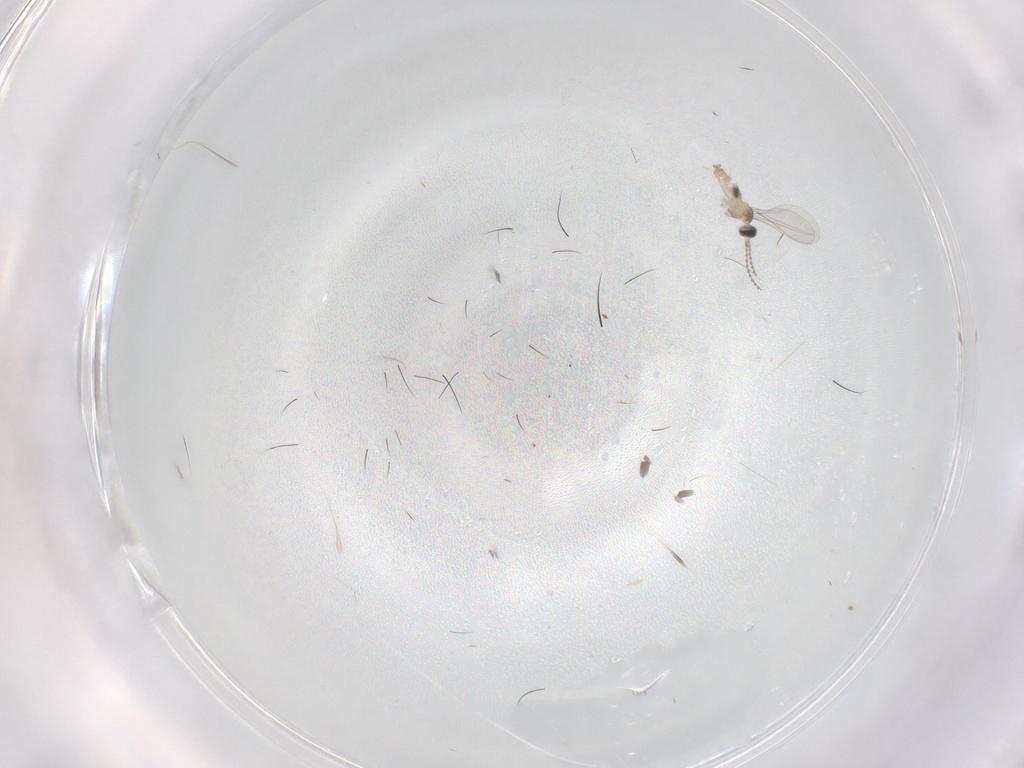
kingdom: Animalia
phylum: Arthropoda
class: Insecta
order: Diptera
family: Cecidomyiidae
